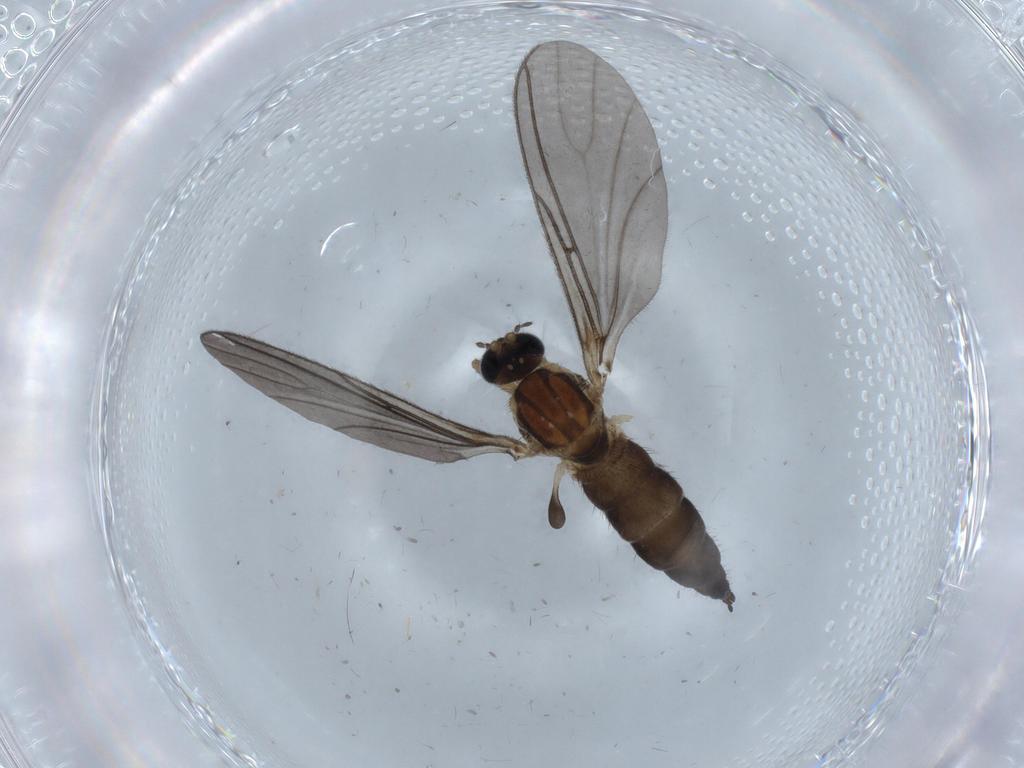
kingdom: Animalia
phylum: Arthropoda
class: Insecta
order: Diptera
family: Sciaridae
